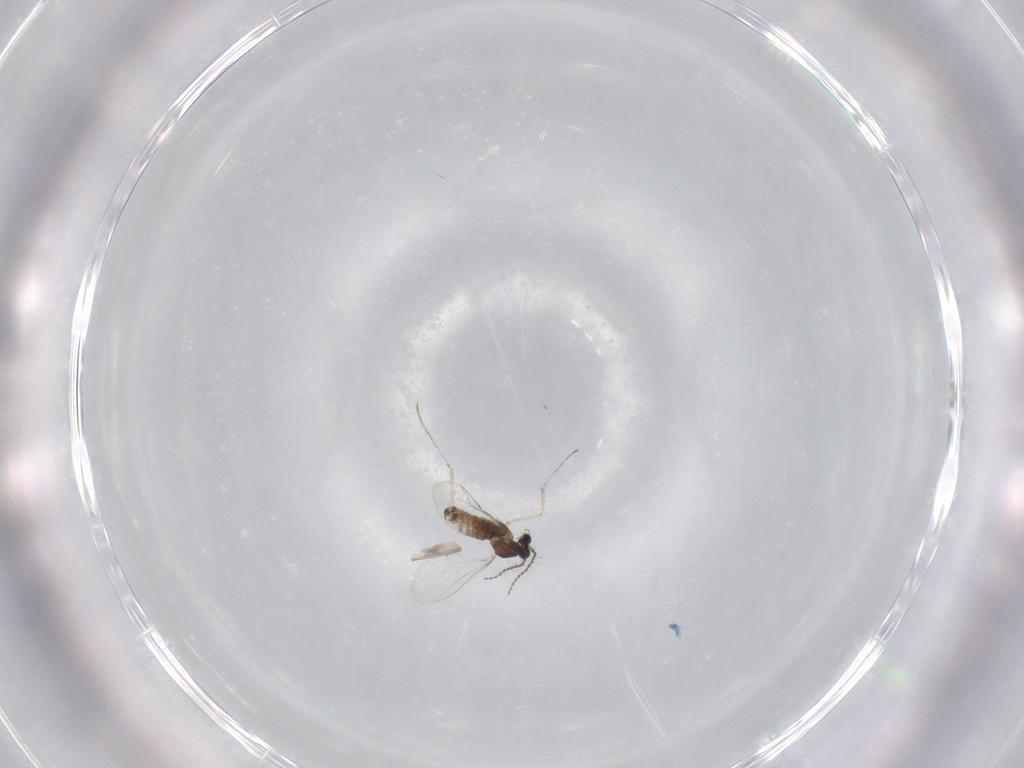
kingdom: Animalia
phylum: Arthropoda
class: Insecta
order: Diptera
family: Cecidomyiidae
